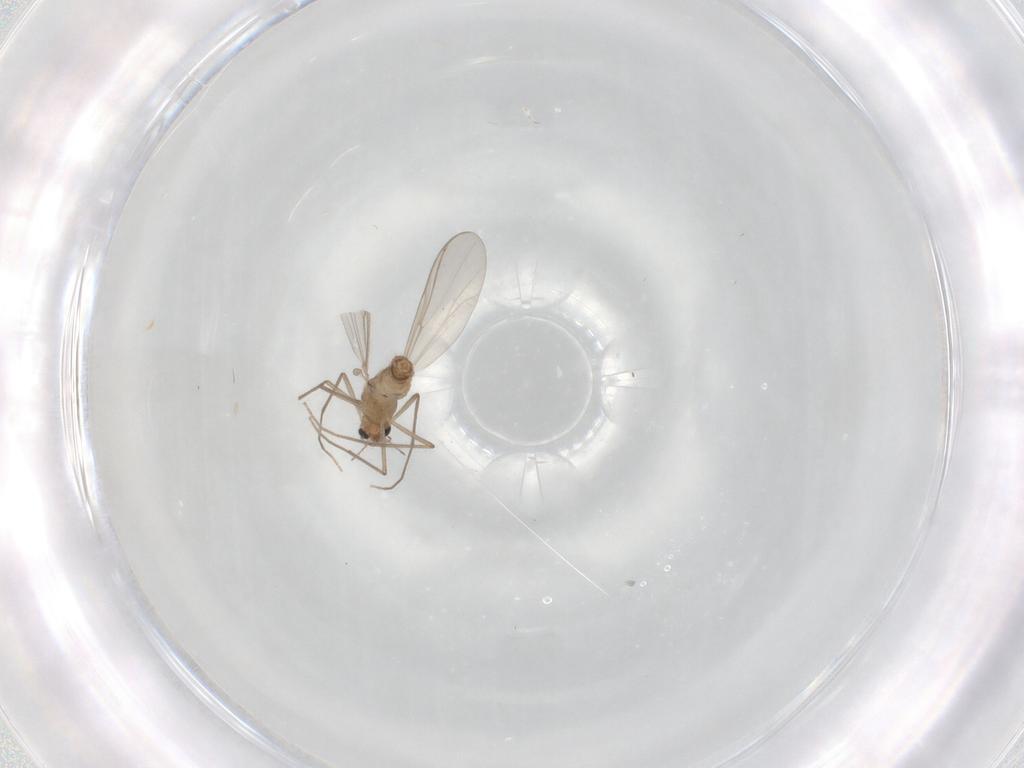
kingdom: Animalia
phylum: Arthropoda
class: Insecta
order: Diptera
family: Chironomidae
